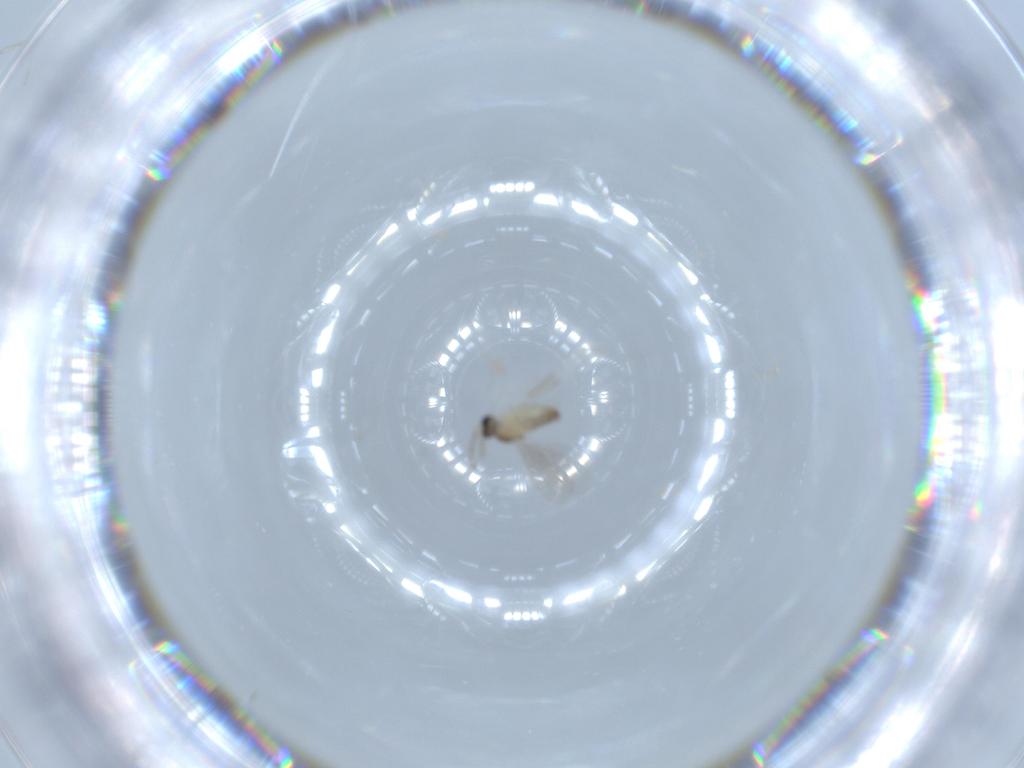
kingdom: Animalia
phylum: Arthropoda
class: Insecta
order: Diptera
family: Cecidomyiidae
